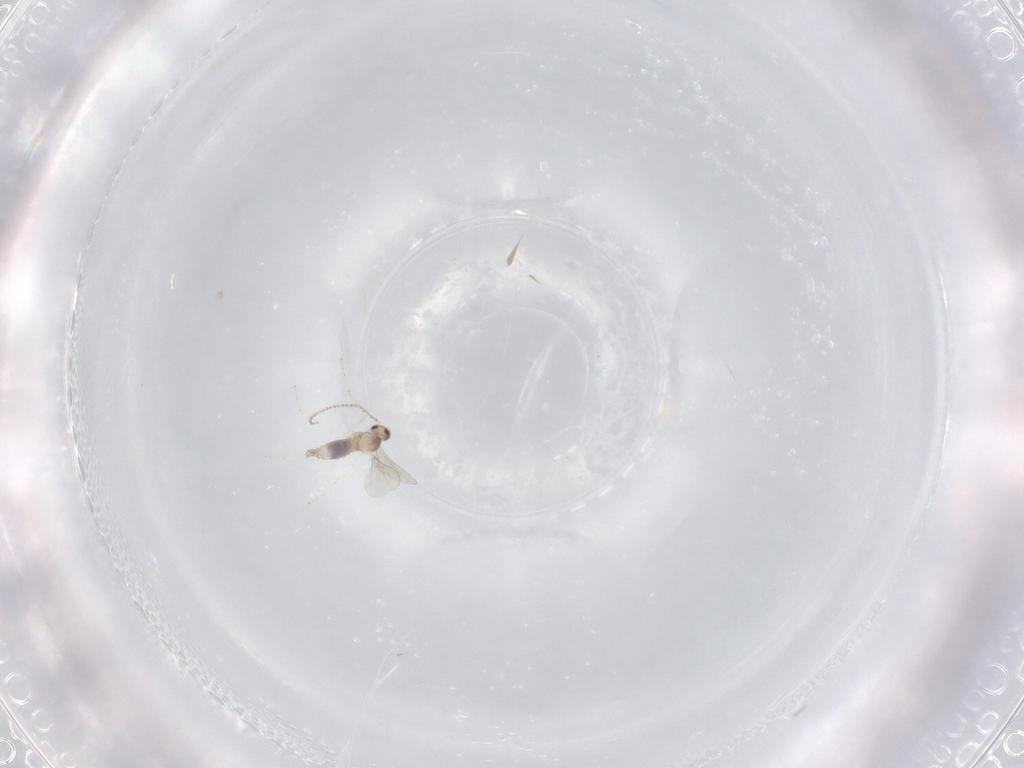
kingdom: Animalia
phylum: Arthropoda
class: Insecta
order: Diptera
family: Cecidomyiidae
